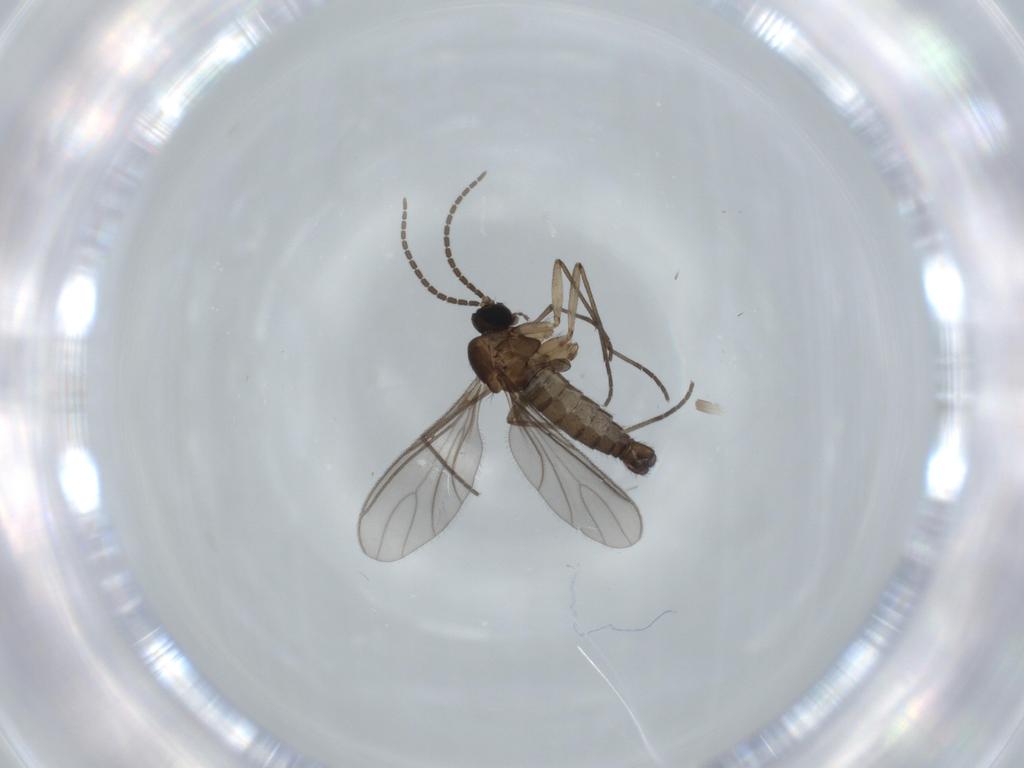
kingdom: Animalia
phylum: Arthropoda
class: Insecta
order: Diptera
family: Sciaridae
